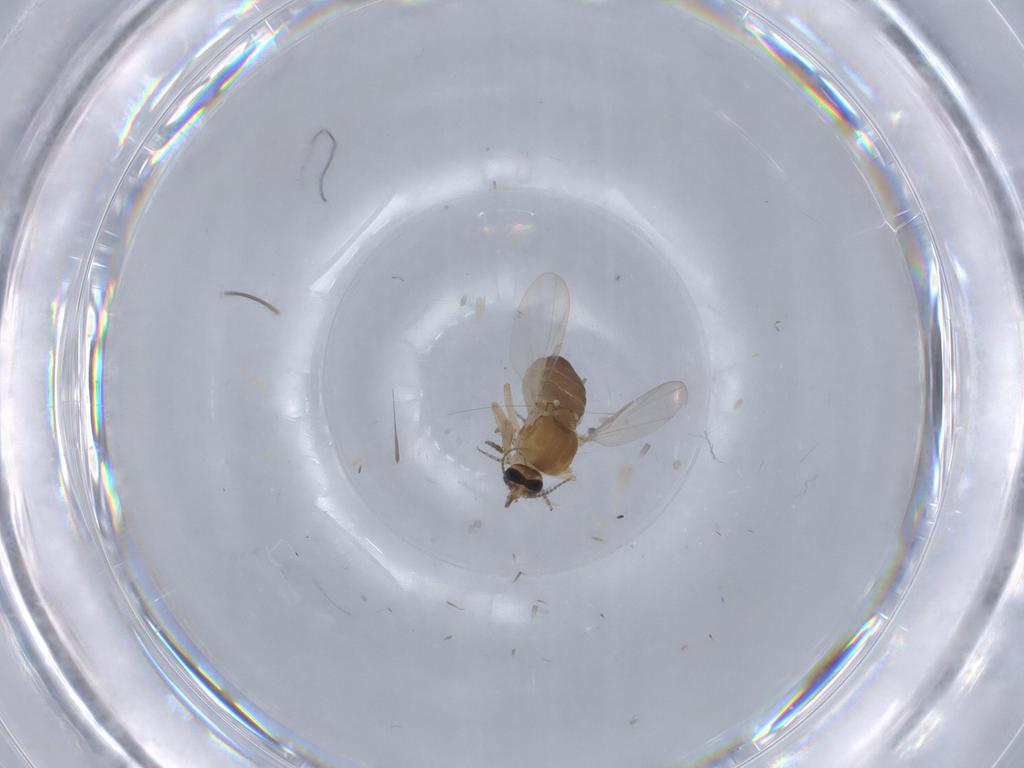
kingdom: Animalia
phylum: Arthropoda
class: Insecta
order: Diptera
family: Ceratopogonidae
